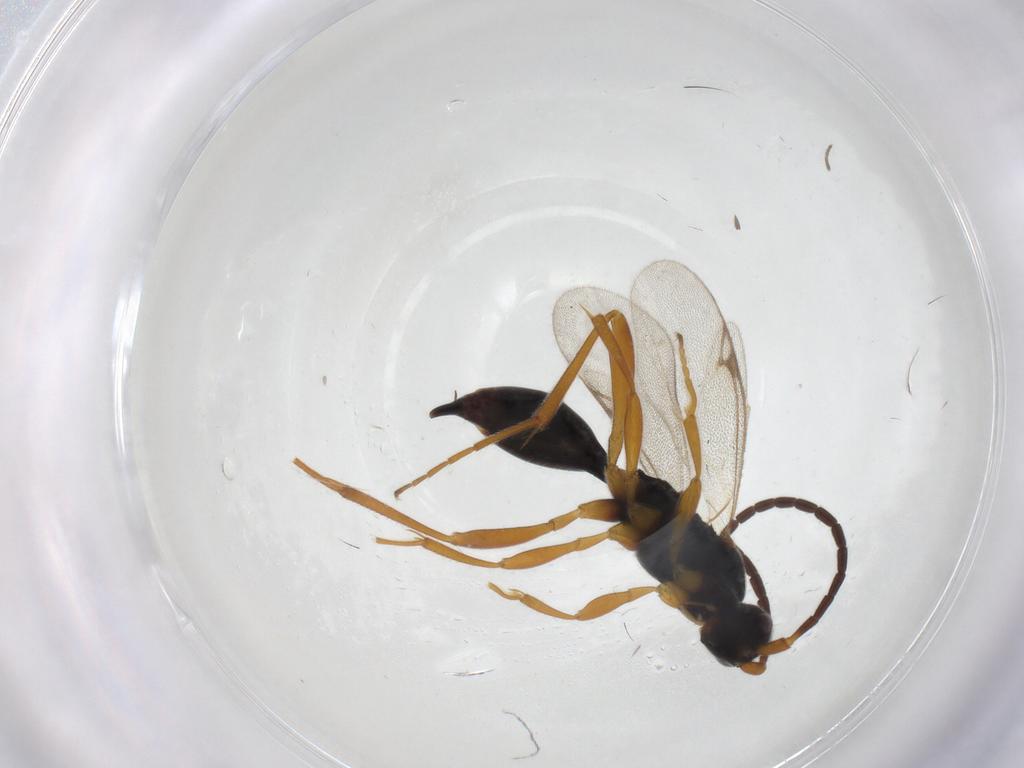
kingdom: Animalia
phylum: Arthropoda
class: Insecta
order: Hymenoptera
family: Proctotrupidae
